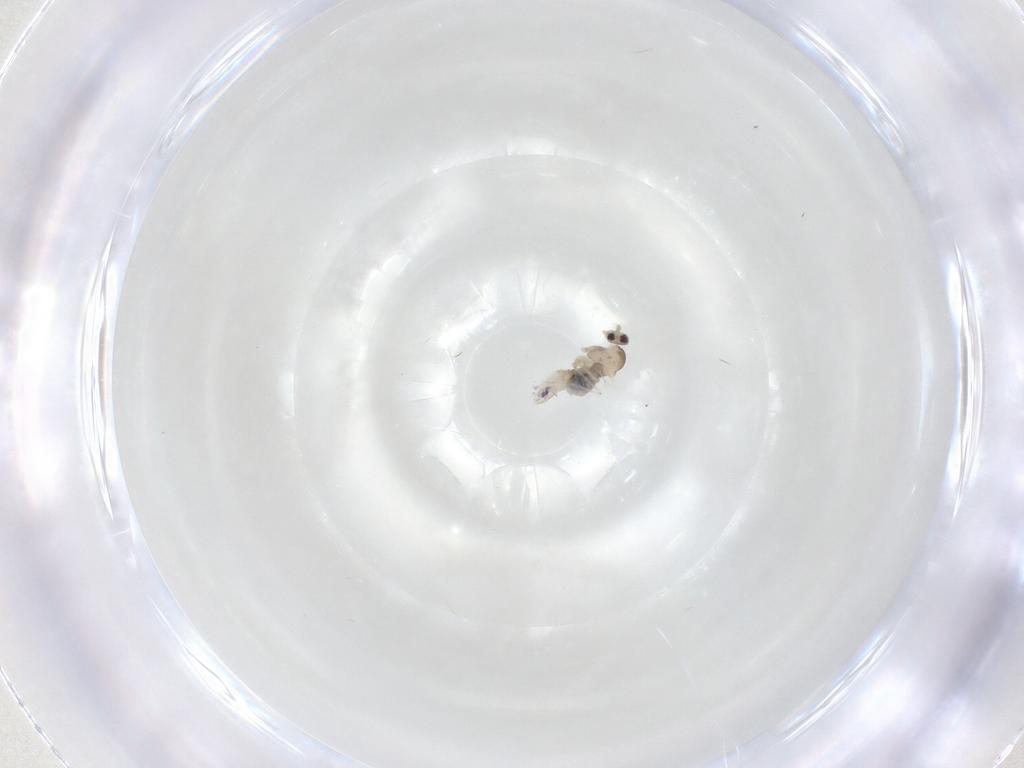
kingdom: Animalia
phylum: Arthropoda
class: Insecta
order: Diptera
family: Cecidomyiidae
